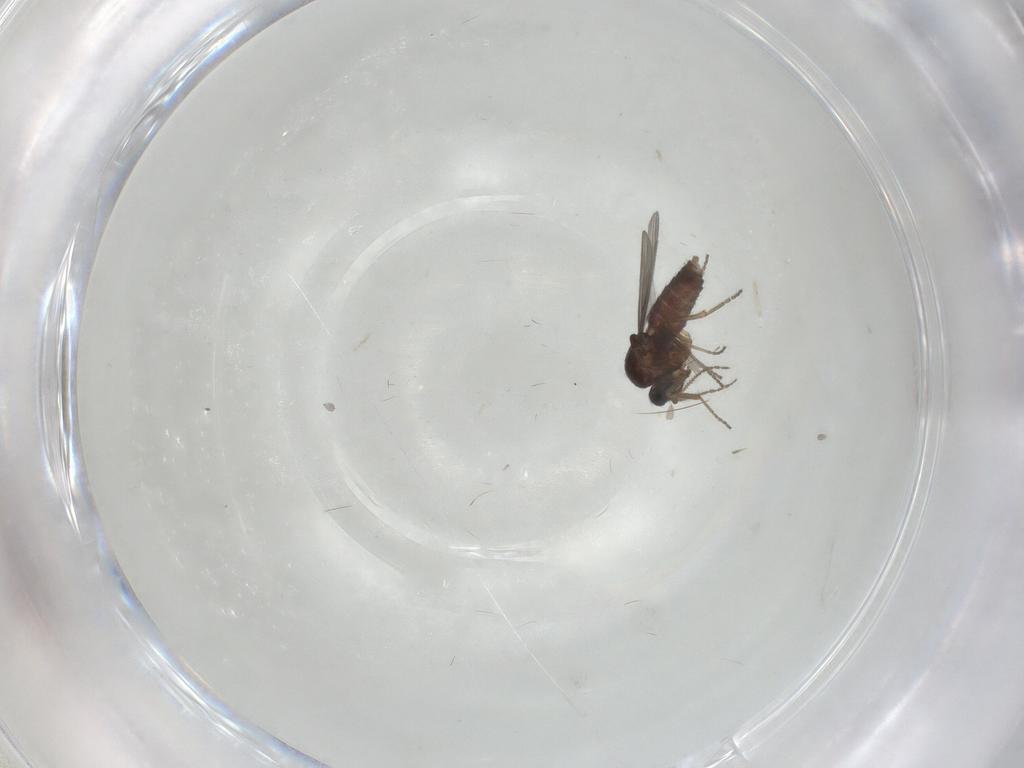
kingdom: Animalia
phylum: Arthropoda
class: Insecta
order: Diptera
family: Ceratopogonidae
